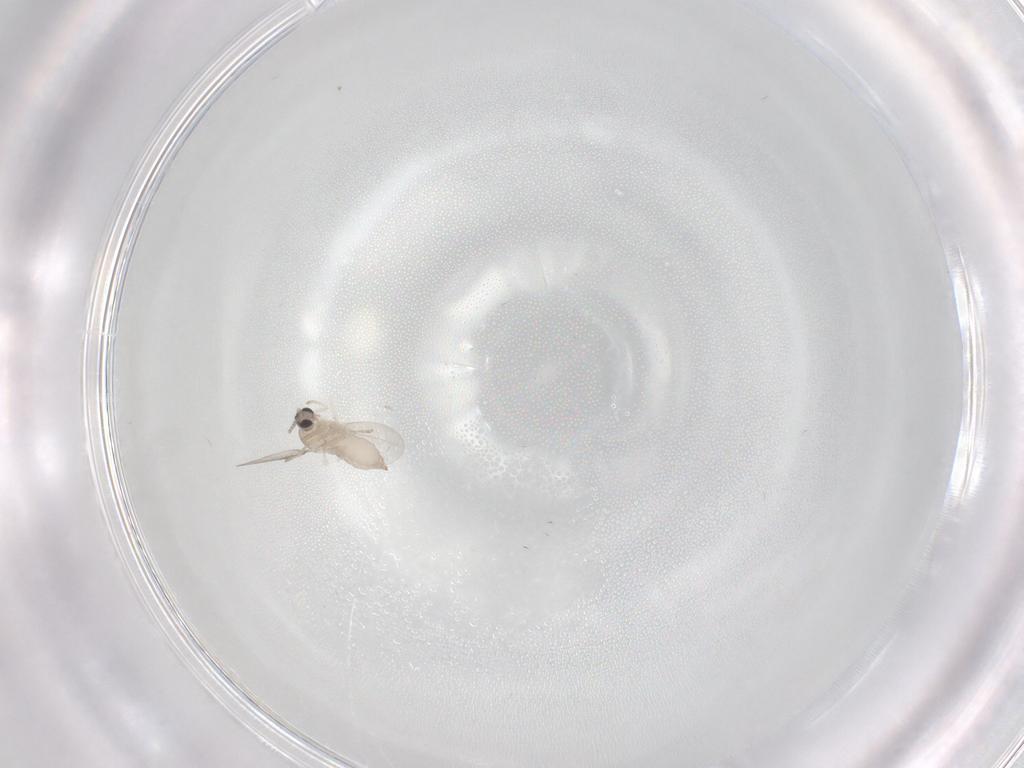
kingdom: Animalia
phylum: Arthropoda
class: Insecta
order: Diptera
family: Cecidomyiidae
